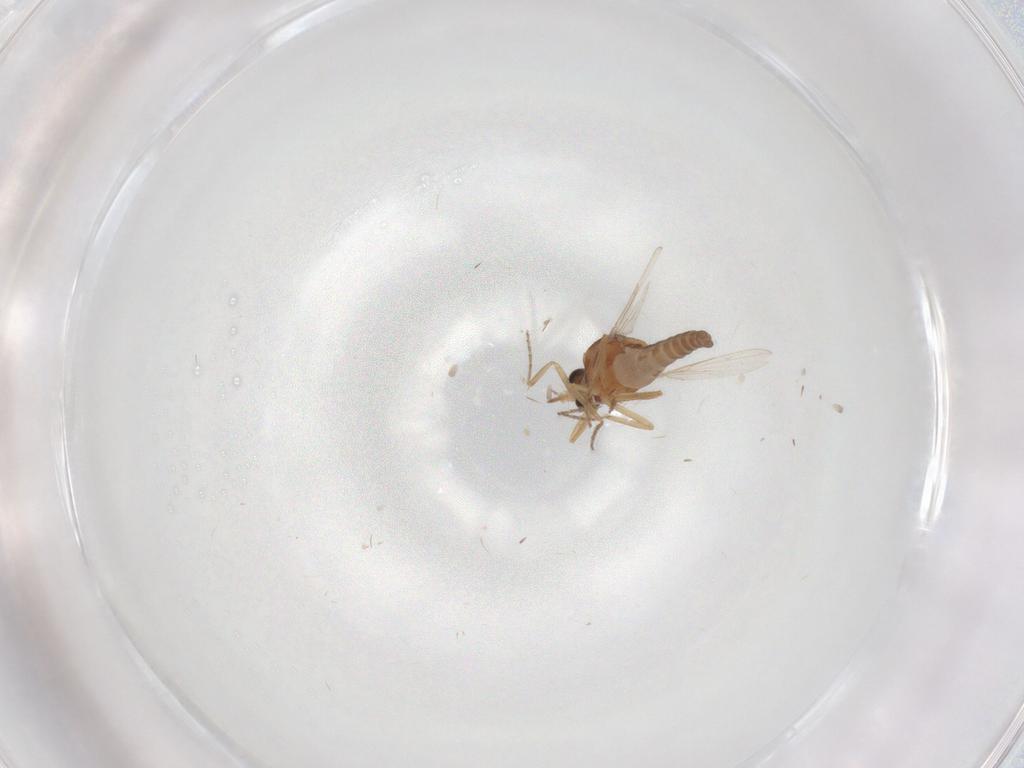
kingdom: Animalia
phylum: Arthropoda
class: Insecta
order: Diptera
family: Ceratopogonidae
